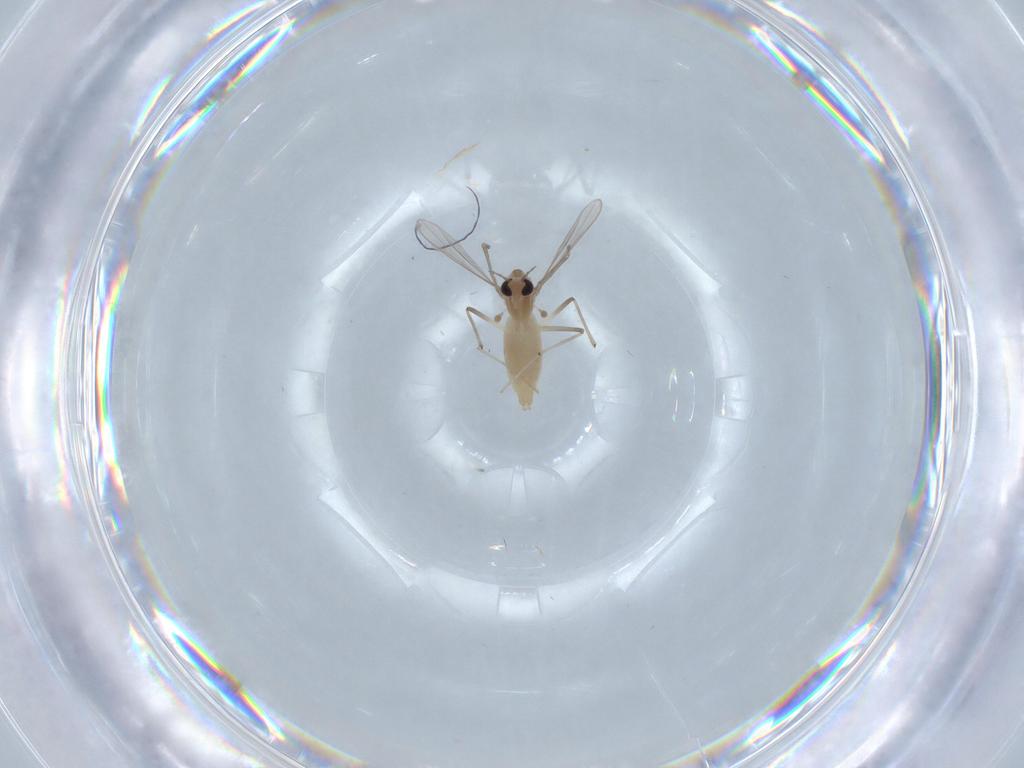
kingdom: Animalia
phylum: Arthropoda
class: Insecta
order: Diptera
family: Chironomidae
